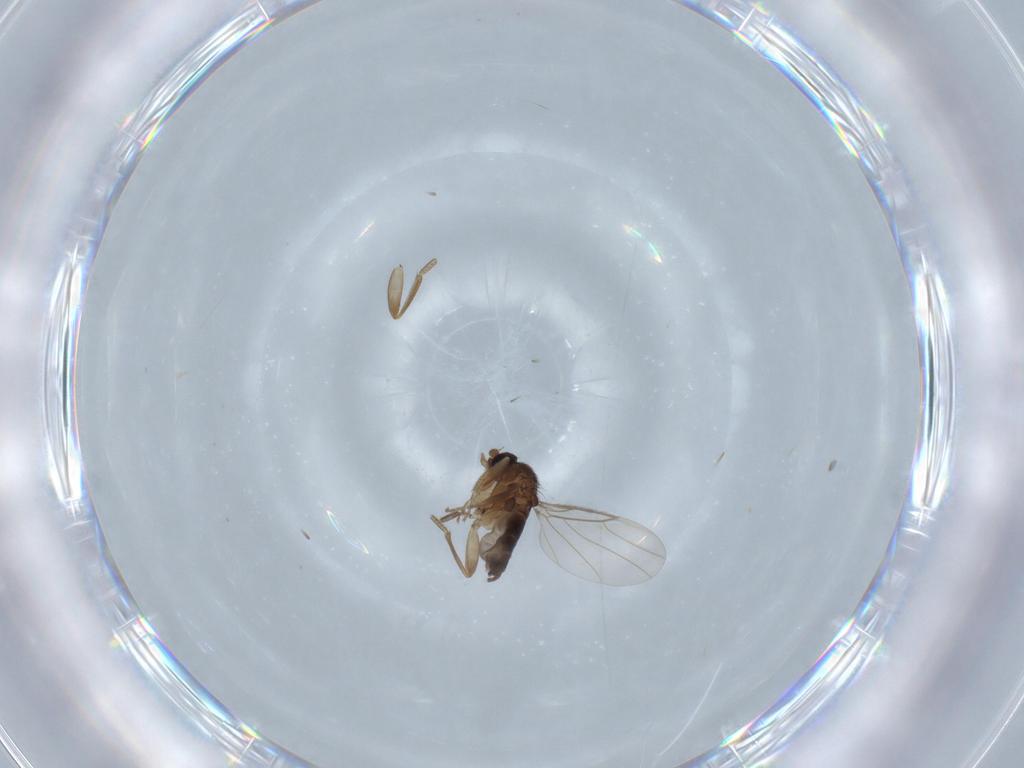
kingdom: Animalia
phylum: Arthropoda
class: Insecta
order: Diptera
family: Phoridae
